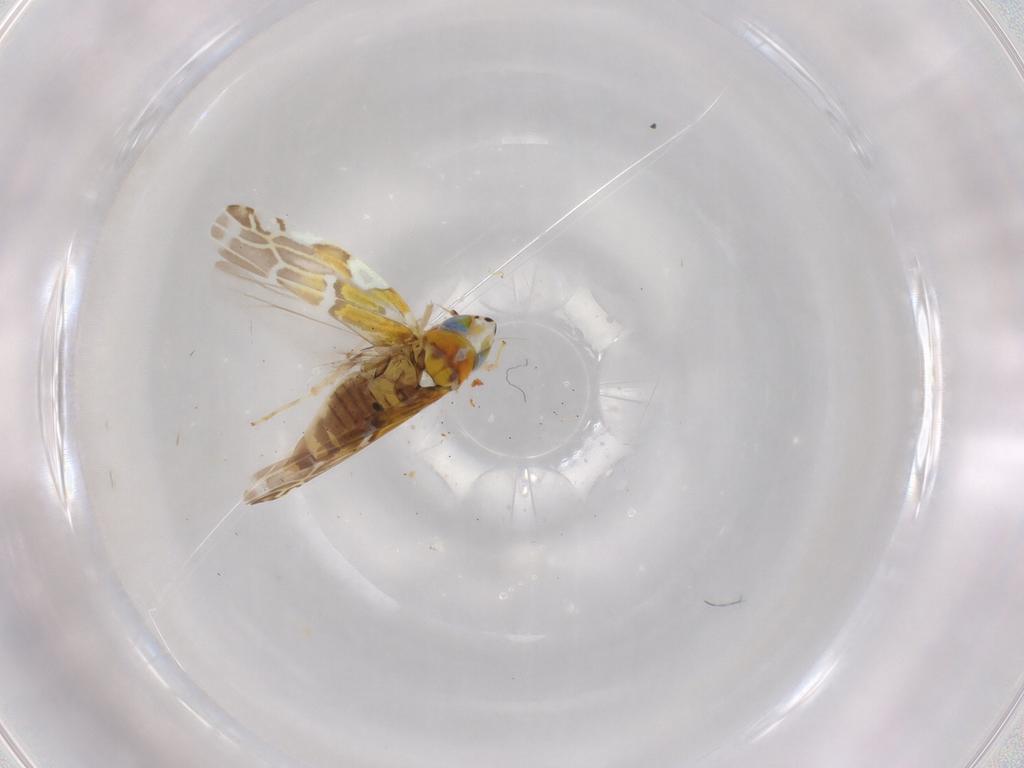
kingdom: Animalia
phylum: Arthropoda
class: Insecta
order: Hemiptera
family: Cicadellidae
